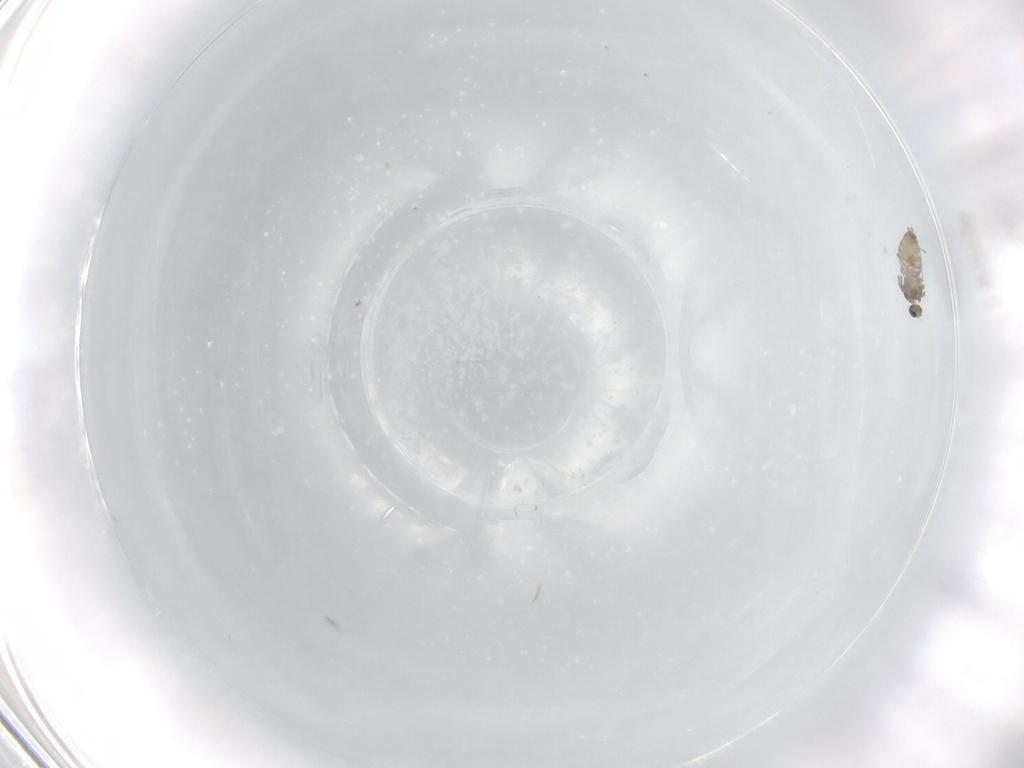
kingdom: Animalia
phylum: Arthropoda
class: Insecta
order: Diptera
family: Cecidomyiidae
